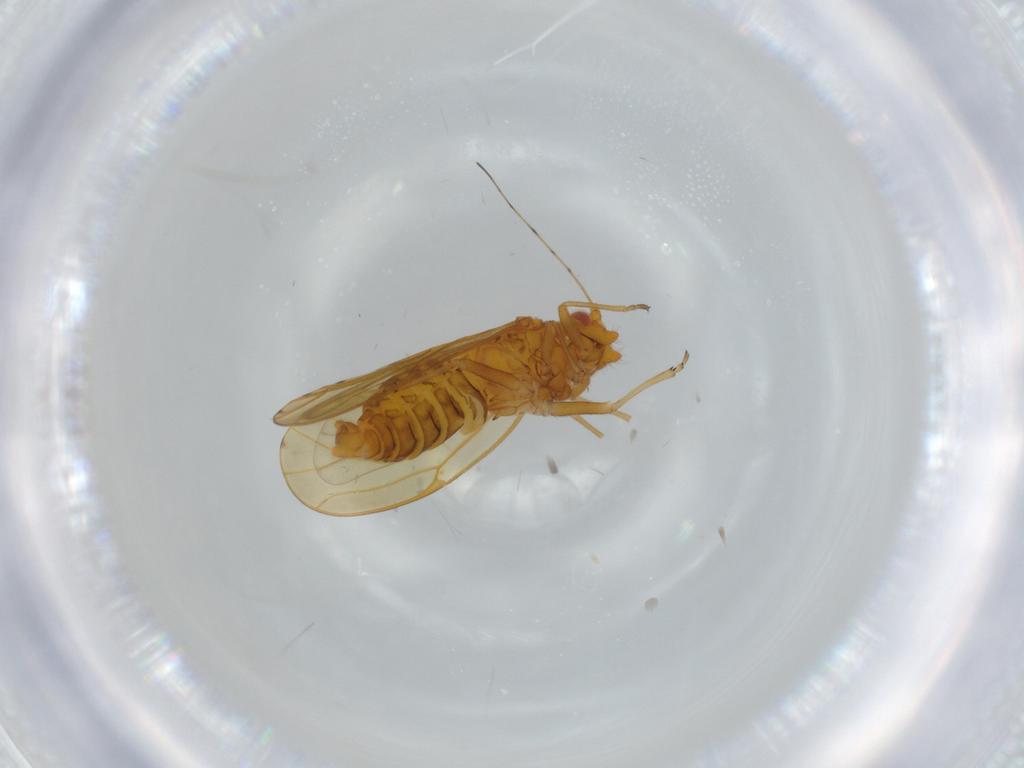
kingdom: Animalia
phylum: Arthropoda
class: Insecta
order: Hemiptera
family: Psylloidea_incertae_sedis
